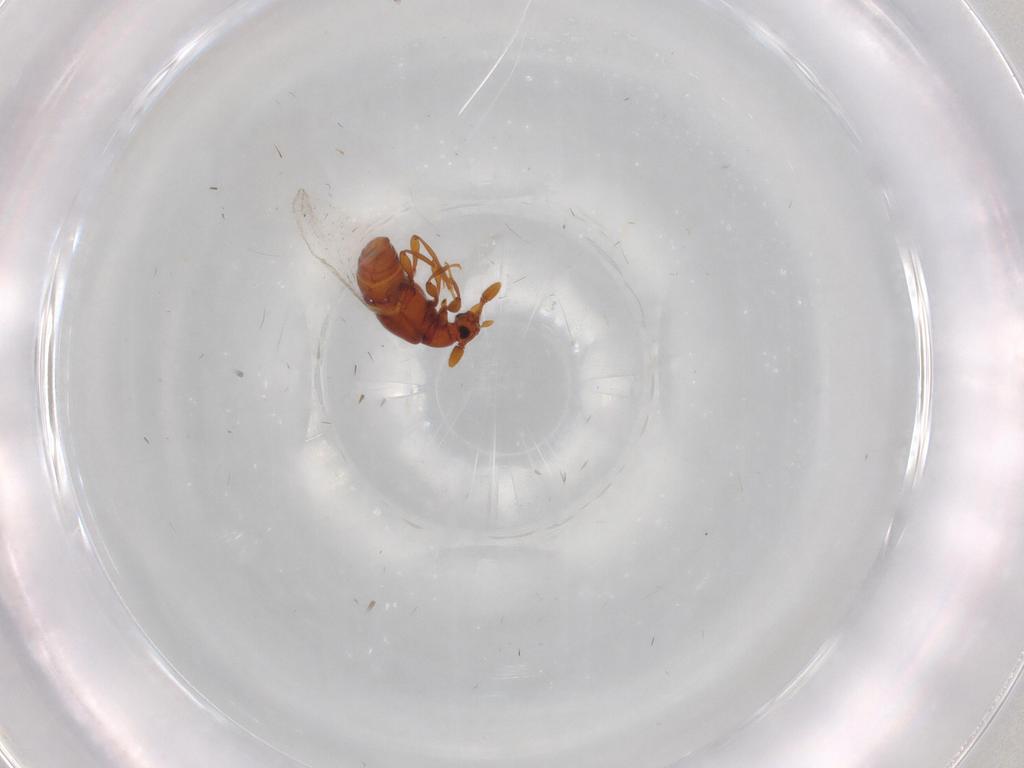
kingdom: Animalia
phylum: Arthropoda
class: Insecta
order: Coleoptera
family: Staphylinidae
